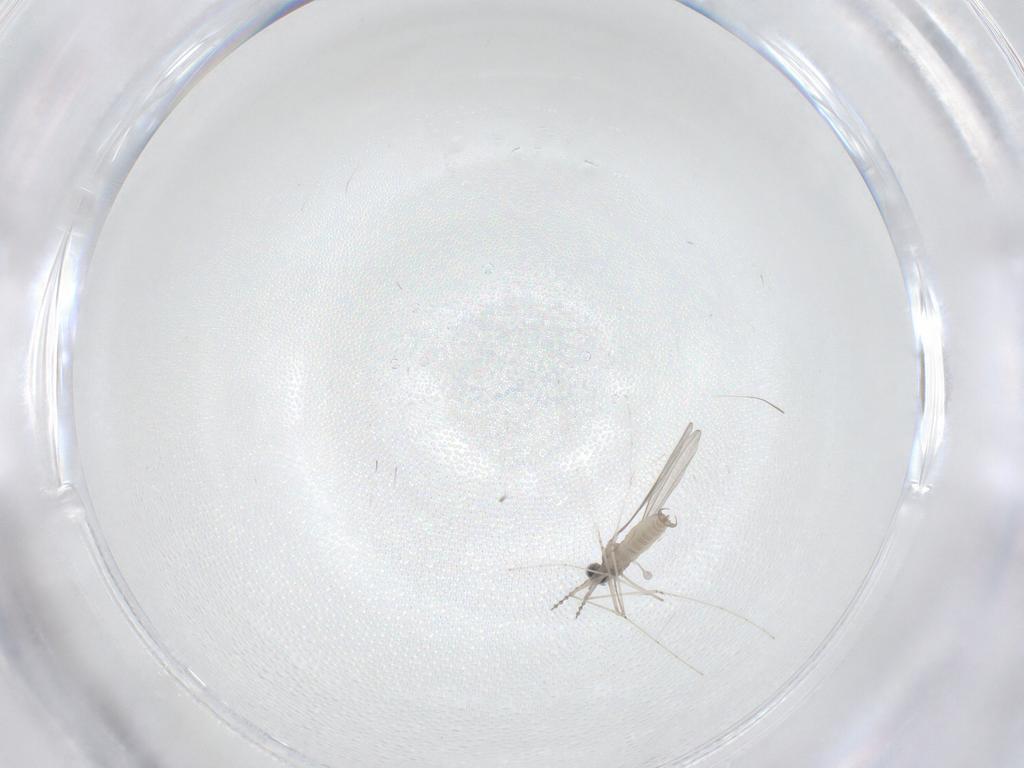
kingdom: Animalia
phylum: Arthropoda
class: Insecta
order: Diptera
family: Cecidomyiidae
